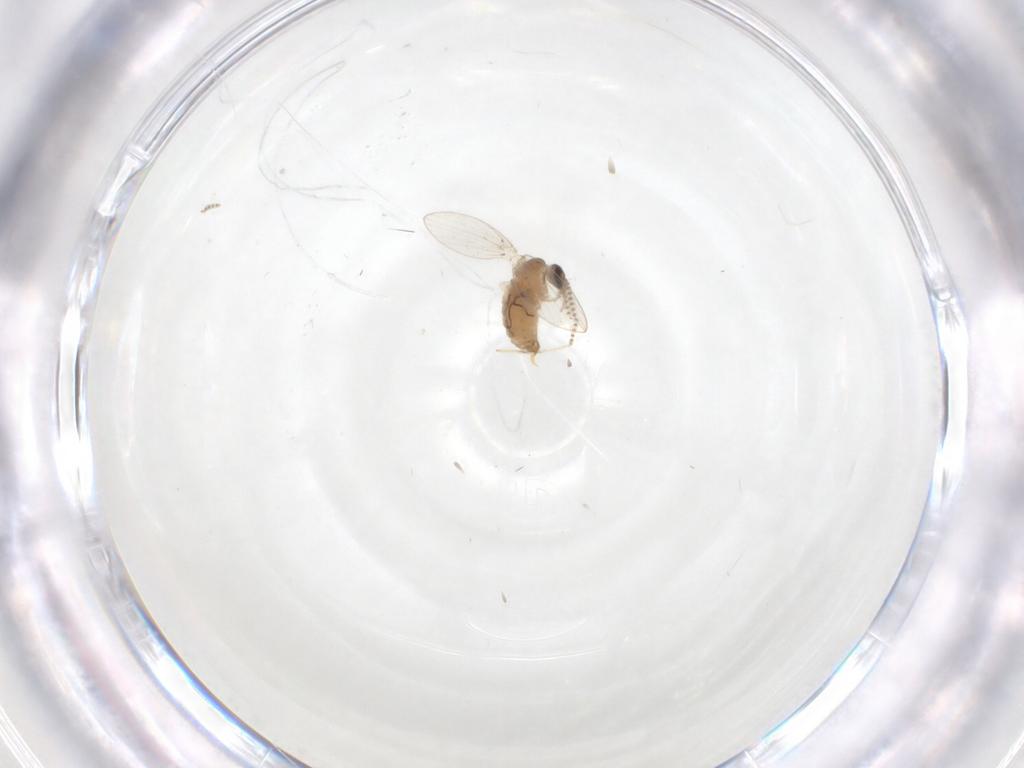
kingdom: Animalia
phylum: Arthropoda
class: Insecta
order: Diptera
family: Psychodidae
